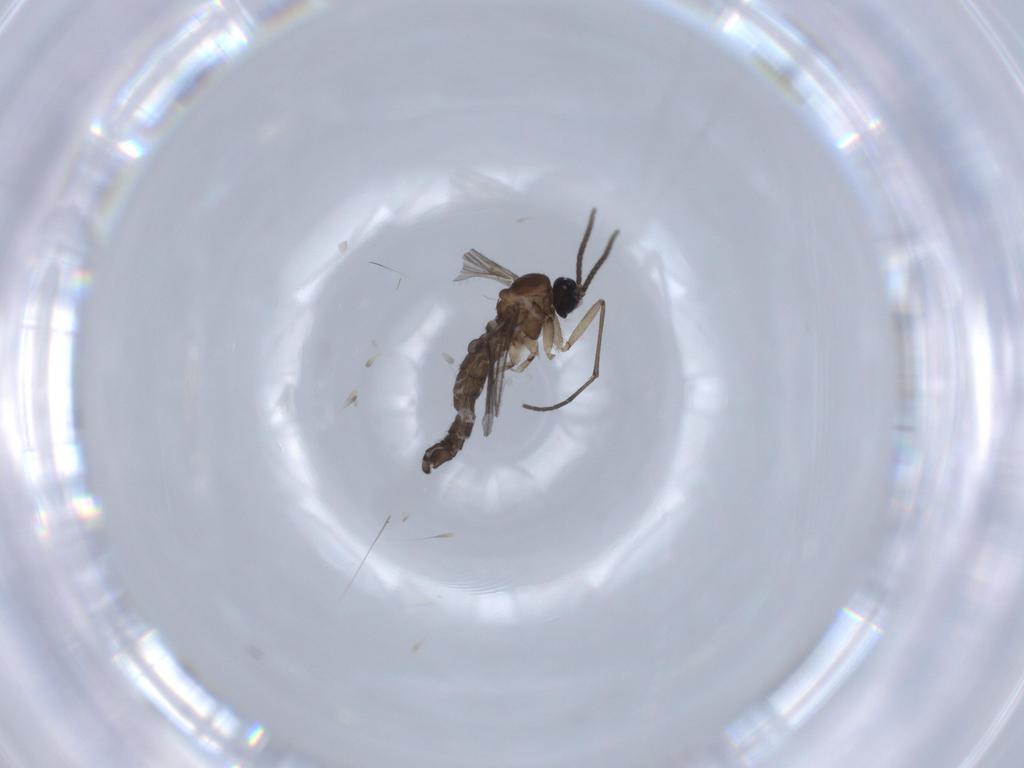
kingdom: Animalia
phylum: Arthropoda
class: Insecta
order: Diptera
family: Sciaridae
